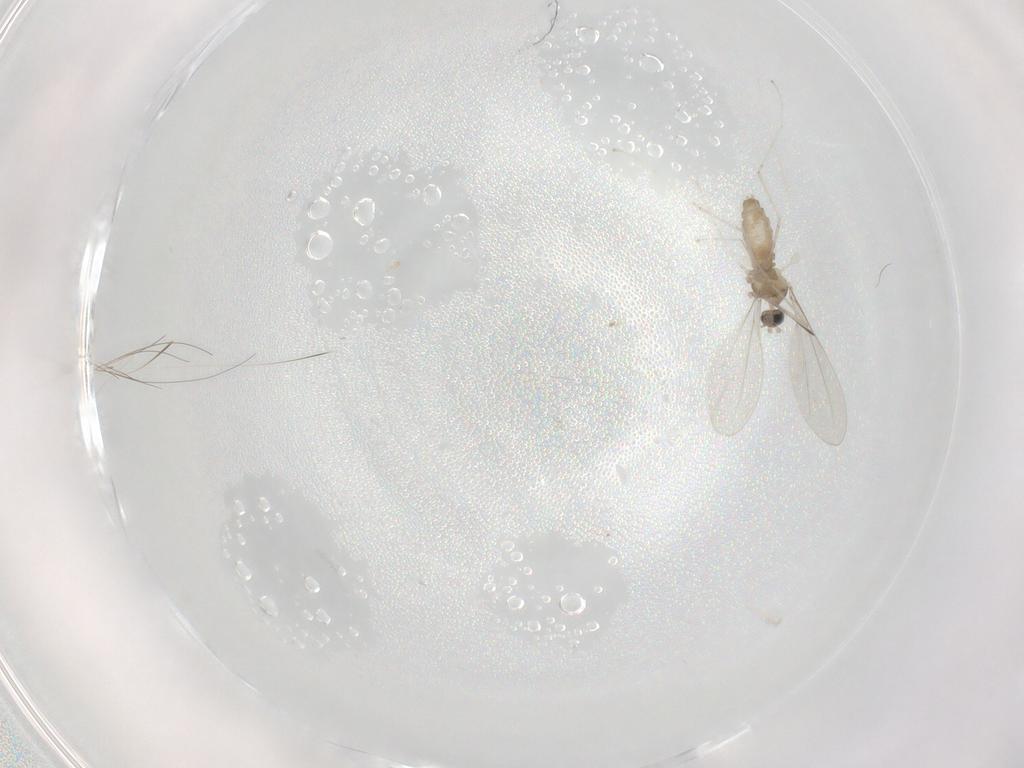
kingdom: Animalia
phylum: Arthropoda
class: Insecta
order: Diptera
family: Cecidomyiidae
